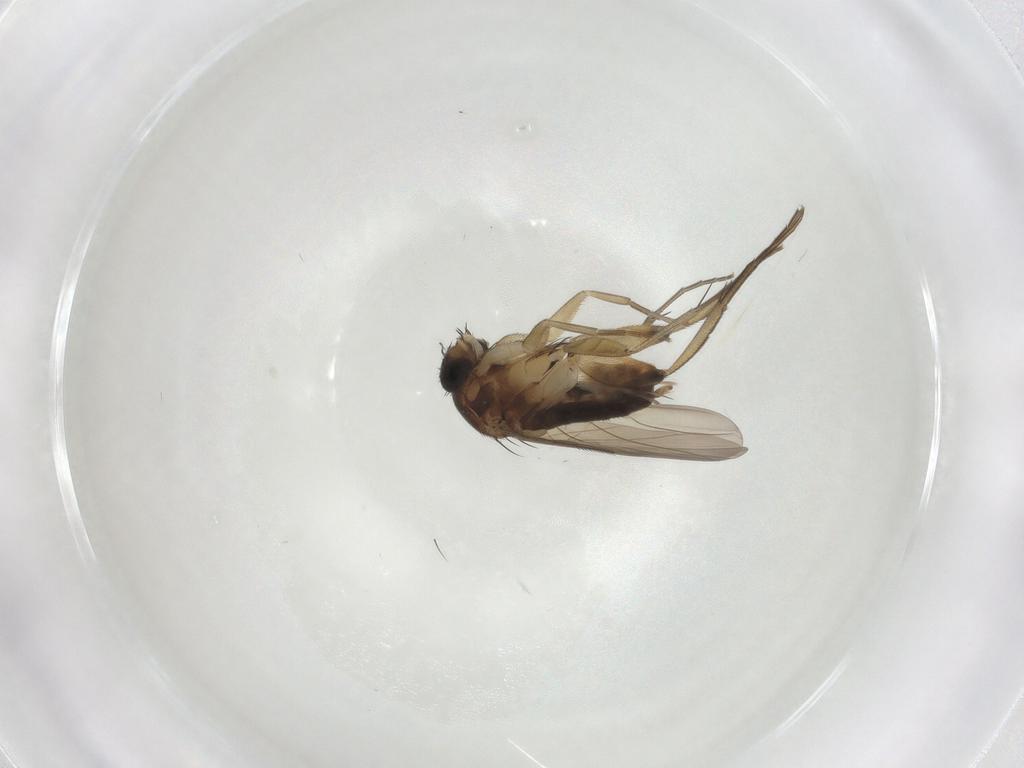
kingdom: Animalia
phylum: Arthropoda
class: Insecta
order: Diptera
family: Phoridae
